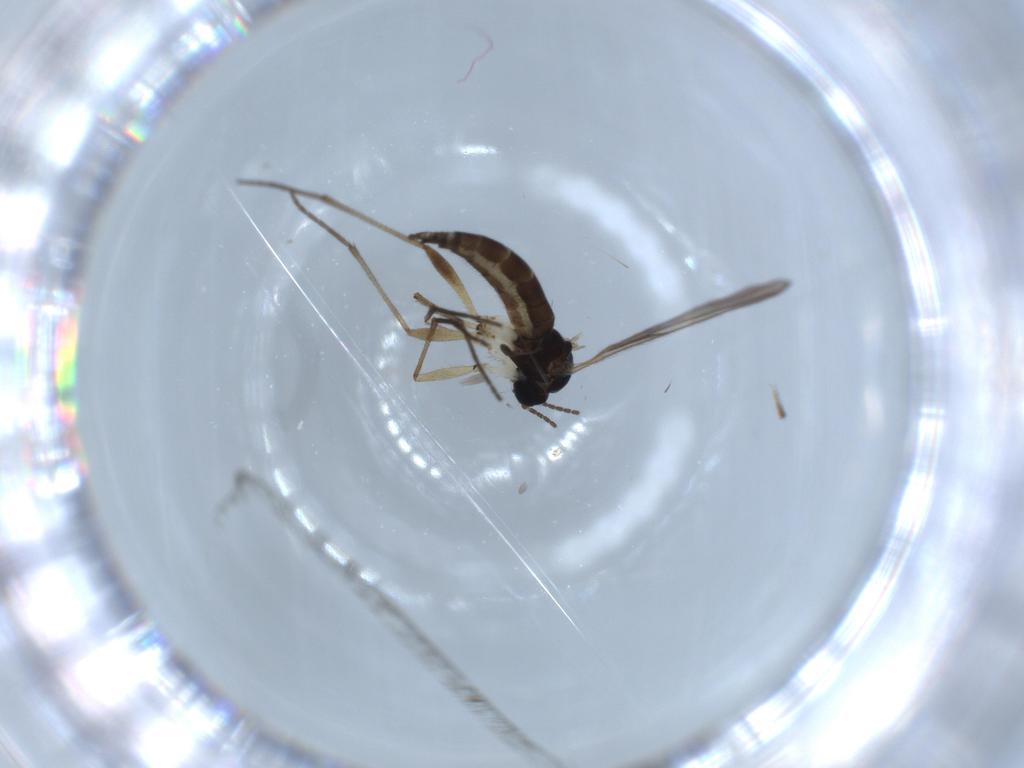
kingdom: Animalia
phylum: Arthropoda
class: Insecta
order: Diptera
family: Sciaridae
